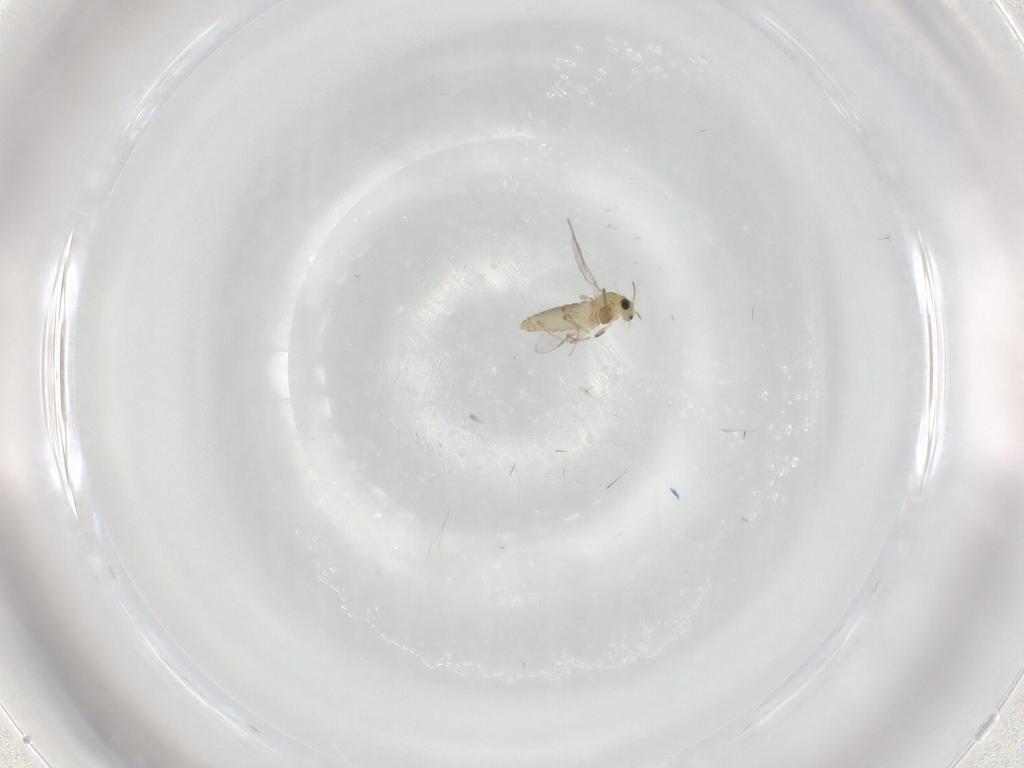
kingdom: Animalia
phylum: Arthropoda
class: Insecta
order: Diptera
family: Chironomidae
